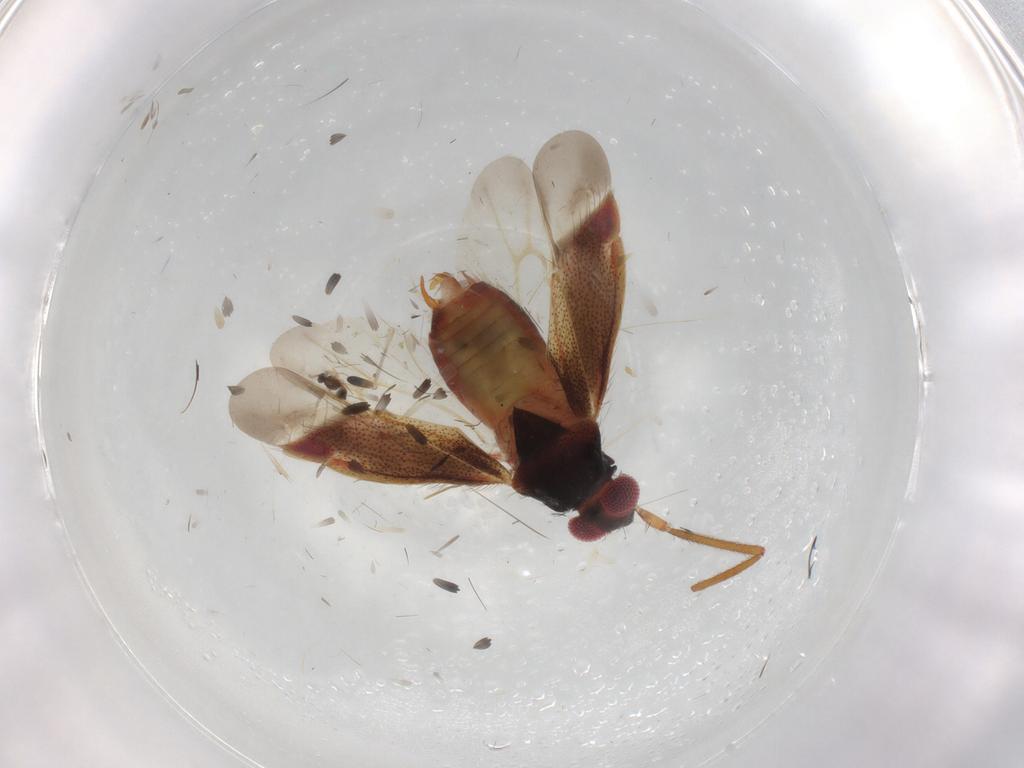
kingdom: Animalia
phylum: Arthropoda
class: Insecta
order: Diptera
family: Cecidomyiidae
